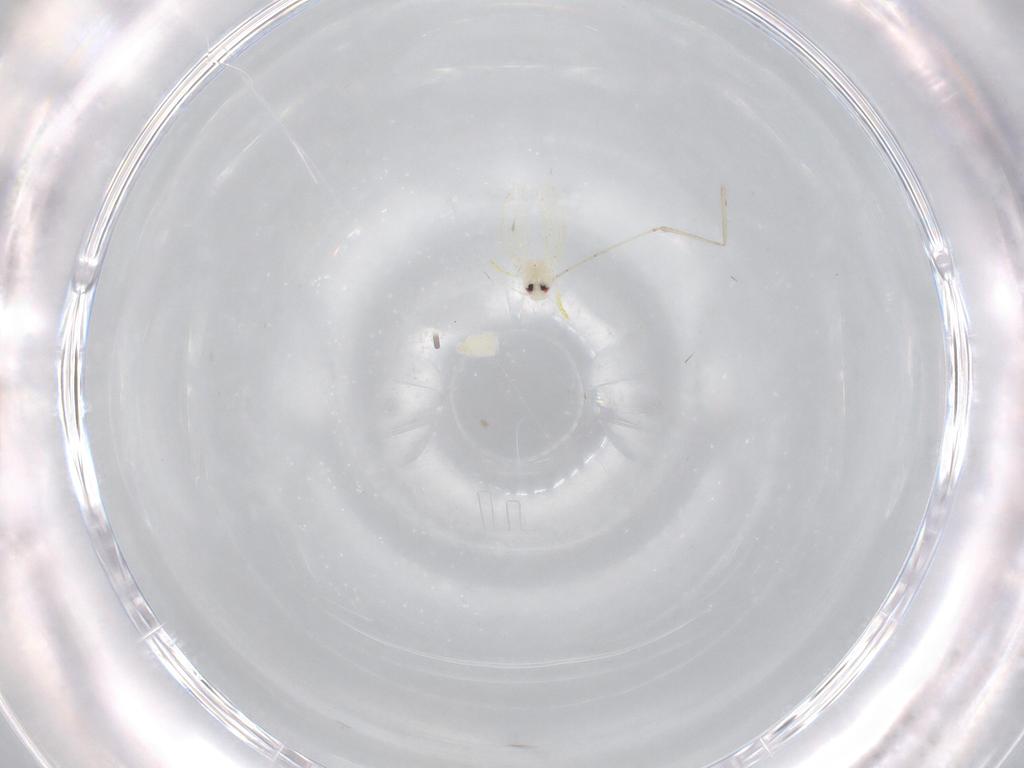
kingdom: Animalia
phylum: Arthropoda
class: Insecta
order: Hemiptera
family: Aleyrodidae
